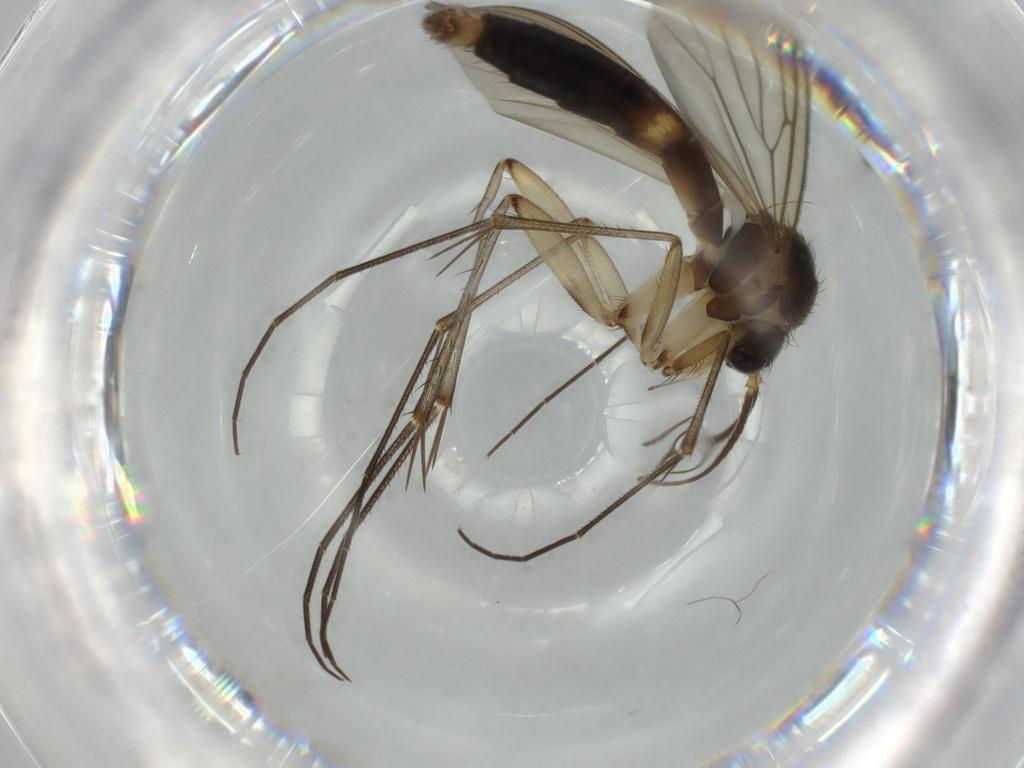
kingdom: Animalia
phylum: Arthropoda
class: Insecta
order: Diptera
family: Mycetophilidae
